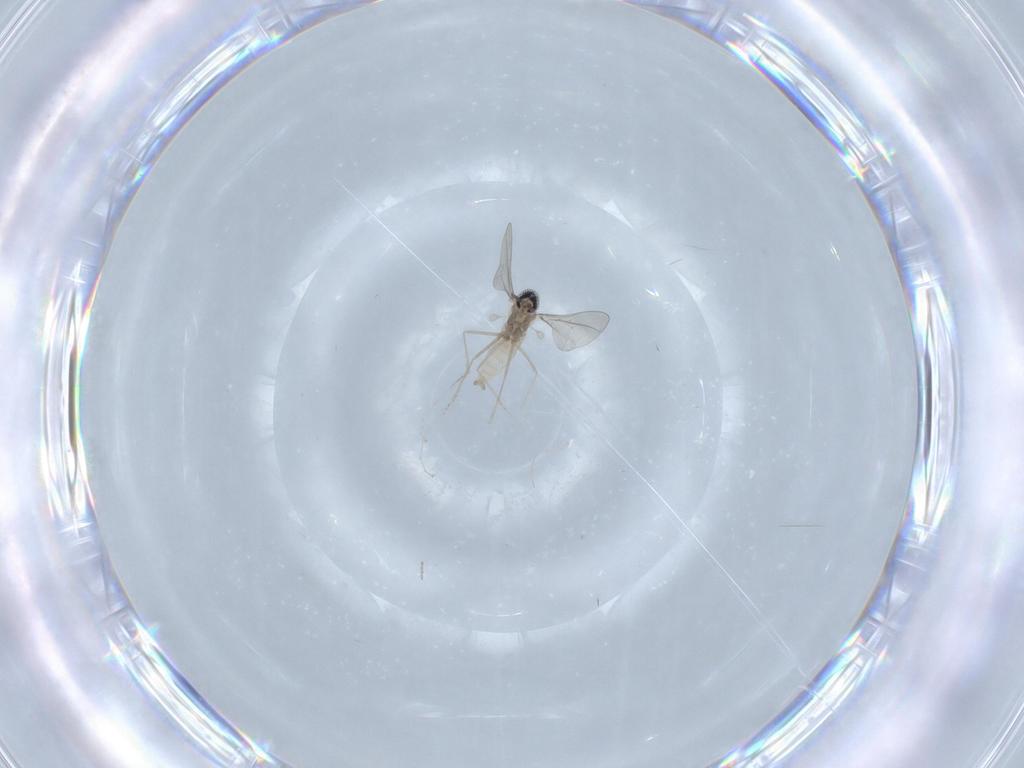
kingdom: Animalia
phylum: Arthropoda
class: Insecta
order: Diptera
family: Cecidomyiidae
